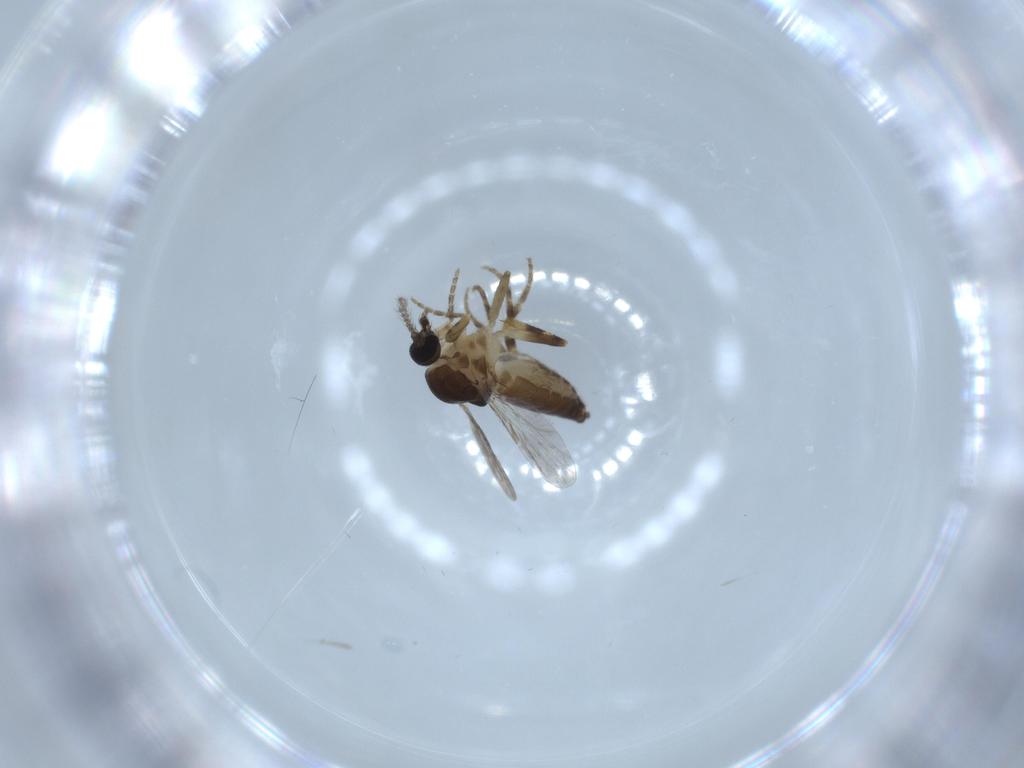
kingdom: Animalia
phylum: Arthropoda
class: Insecta
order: Diptera
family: Ceratopogonidae
